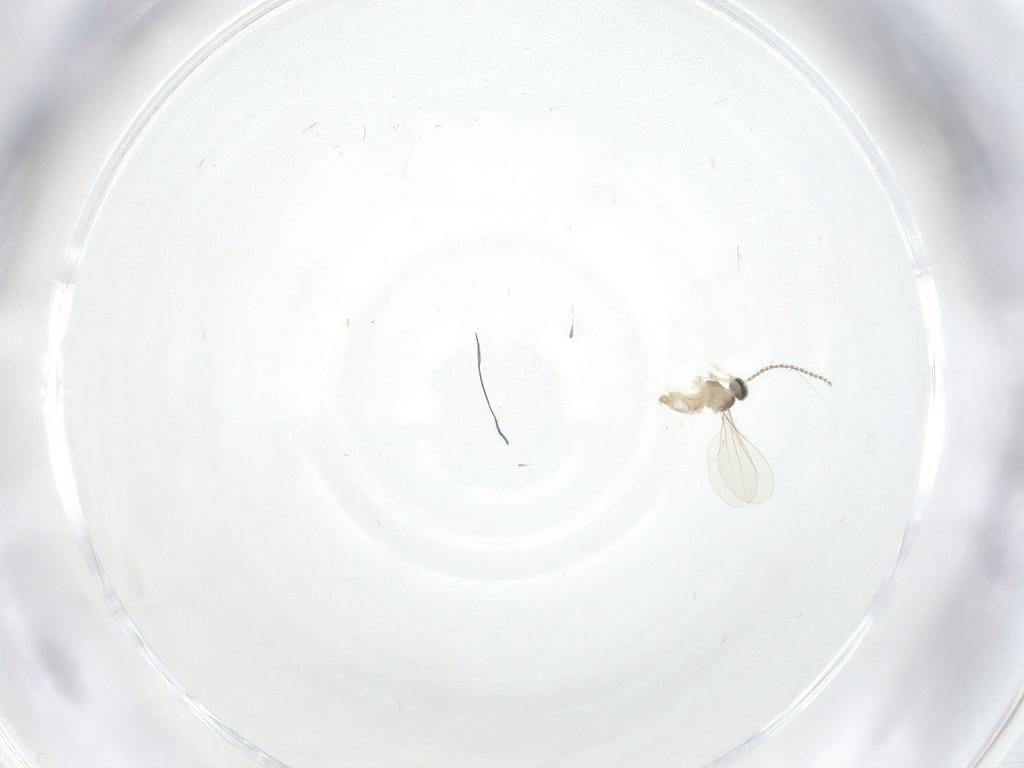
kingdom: Animalia
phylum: Arthropoda
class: Insecta
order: Diptera
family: Cecidomyiidae
